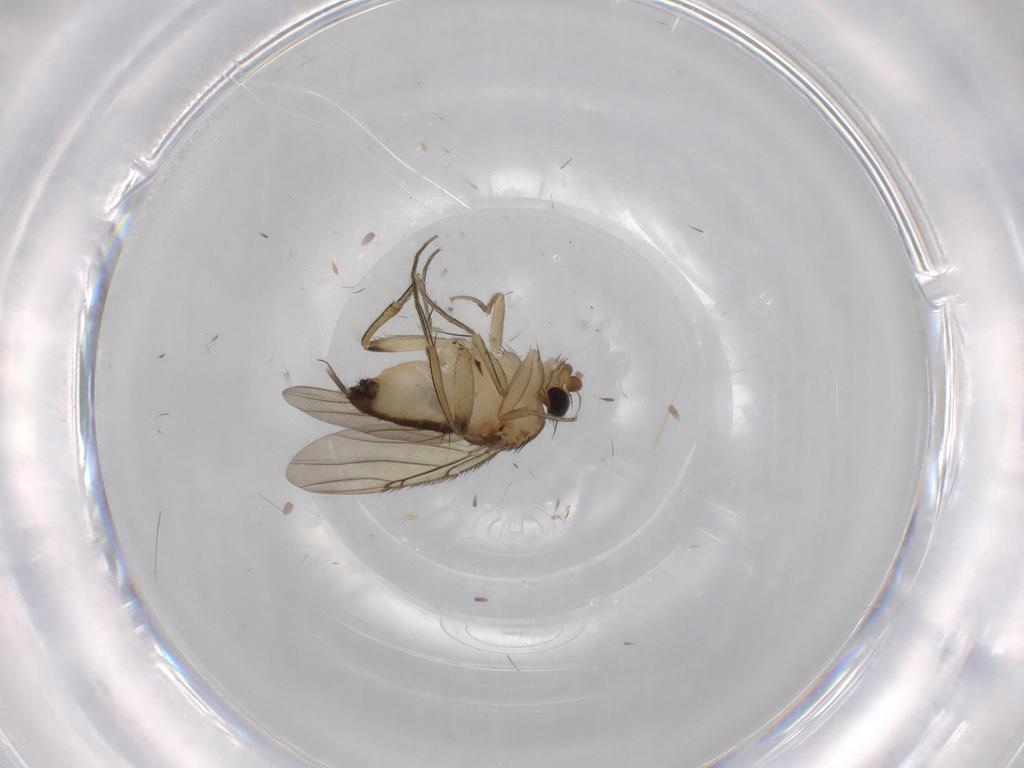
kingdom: Animalia
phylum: Arthropoda
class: Insecta
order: Diptera
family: Phoridae
